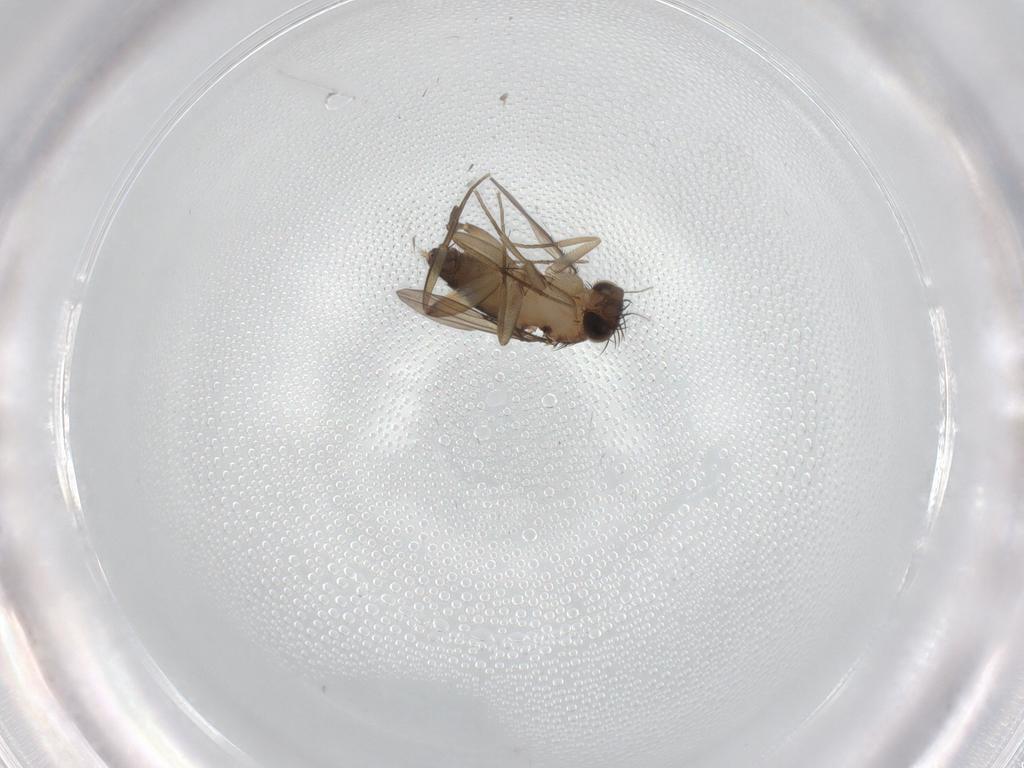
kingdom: Animalia
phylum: Arthropoda
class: Insecta
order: Diptera
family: Phoridae
